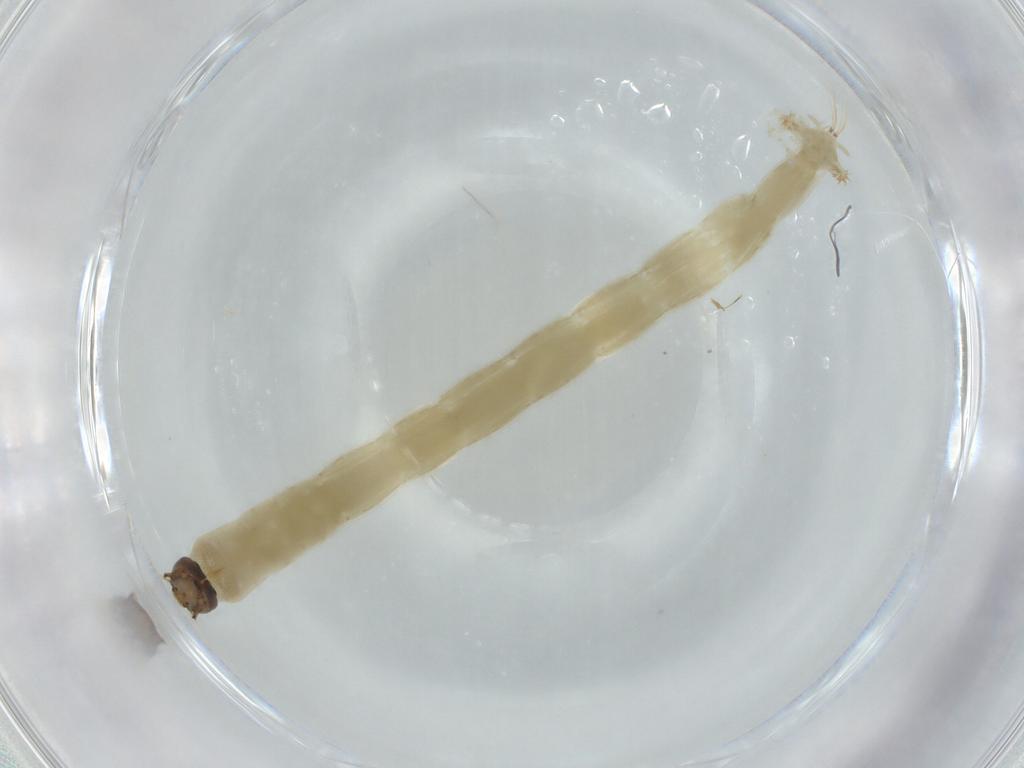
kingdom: Animalia
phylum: Arthropoda
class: Insecta
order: Diptera
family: Chironomidae
